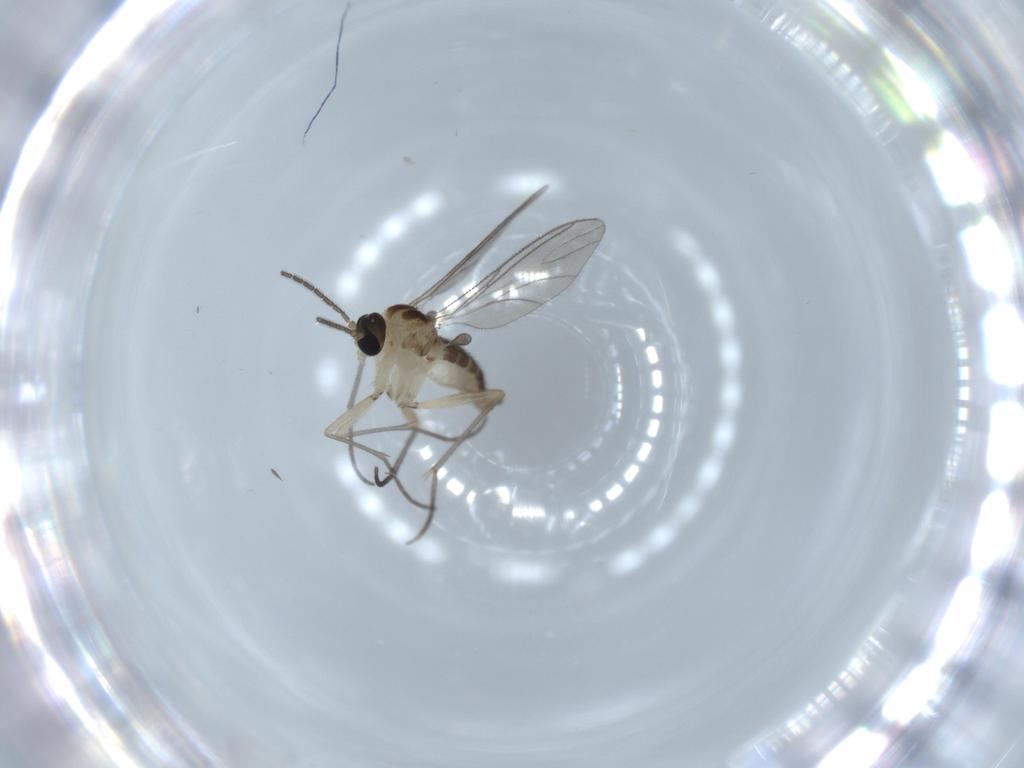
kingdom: Animalia
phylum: Arthropoda
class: Insecta
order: Diptera
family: Sciaridae
